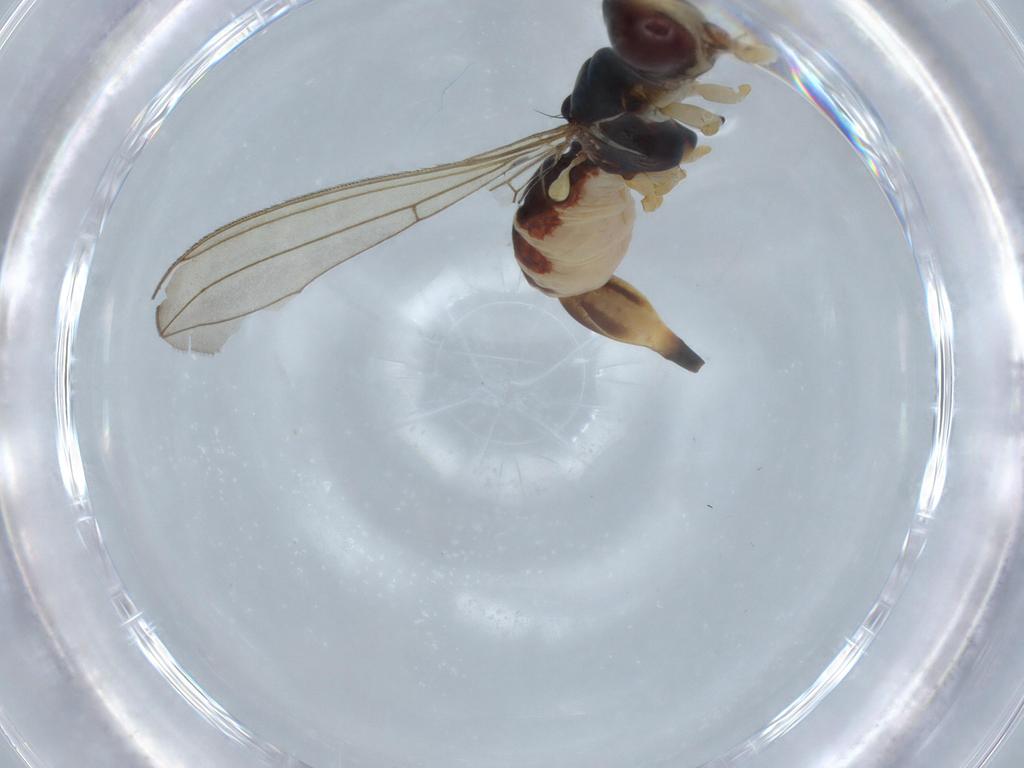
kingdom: Animalia
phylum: Arthropoda
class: Insecta
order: Diptera
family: Micropezidae
